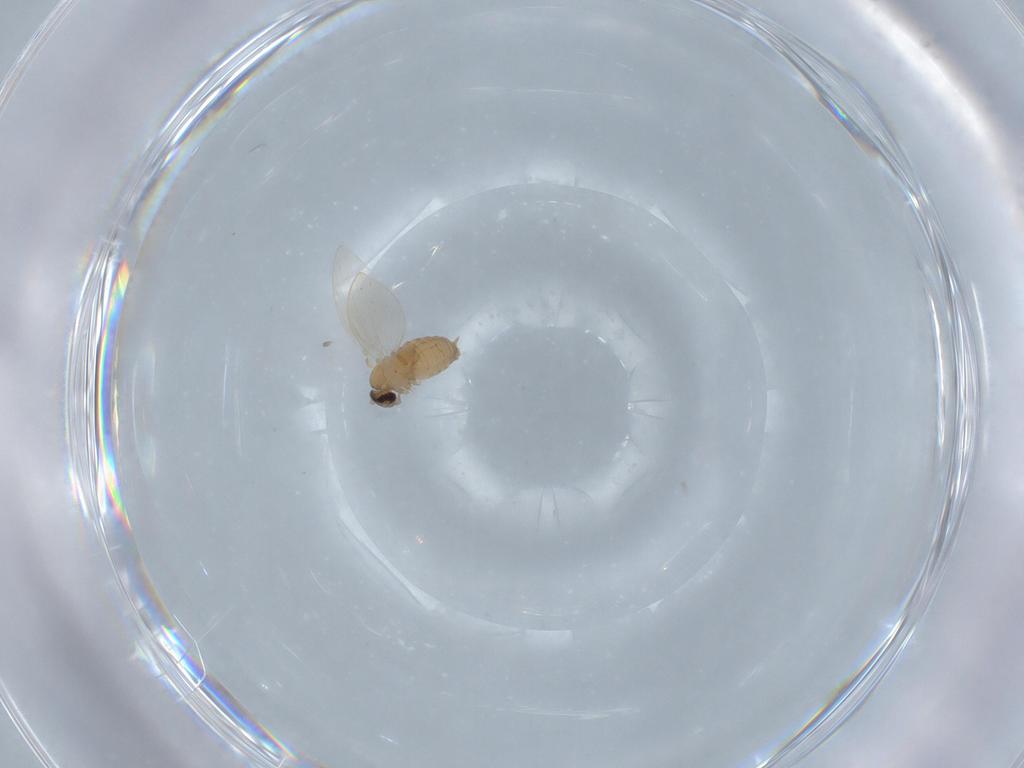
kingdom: Animalia
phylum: Arthropoda
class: Insecta
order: Diptera
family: Psychodidae
